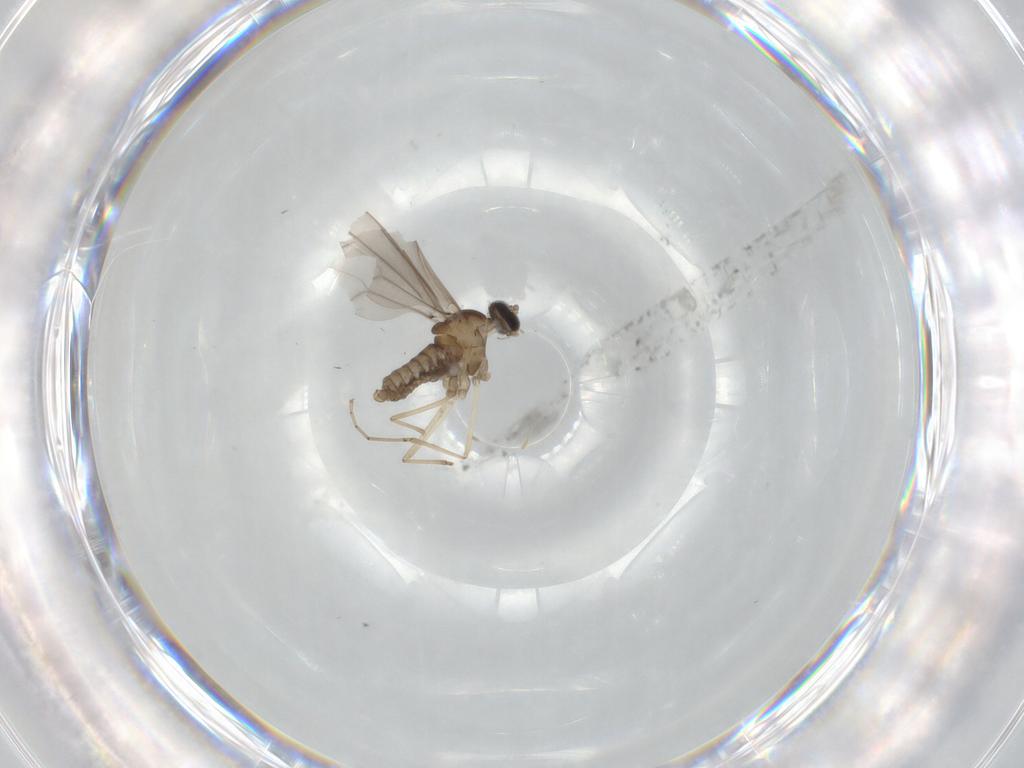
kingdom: Animalia
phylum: Arthropoda
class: Insecta
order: Diptera
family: Cecidomyiidae
